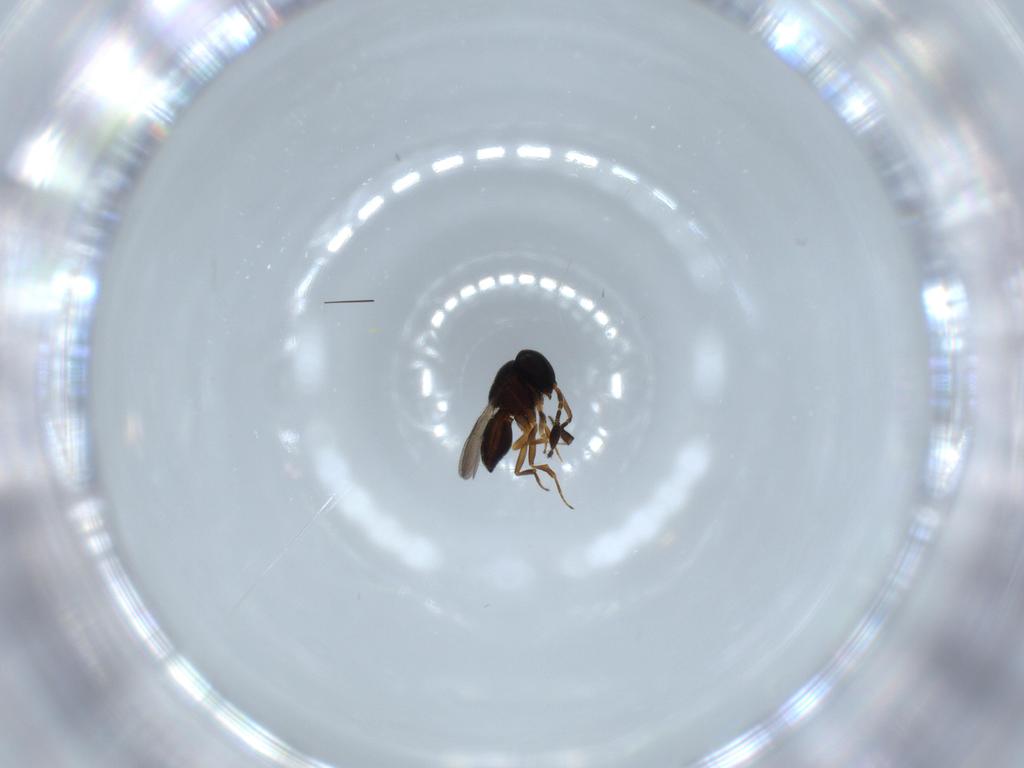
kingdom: Animalia
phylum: Arthropoda
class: Insecta
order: Hymenoptera
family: Scelionidae
